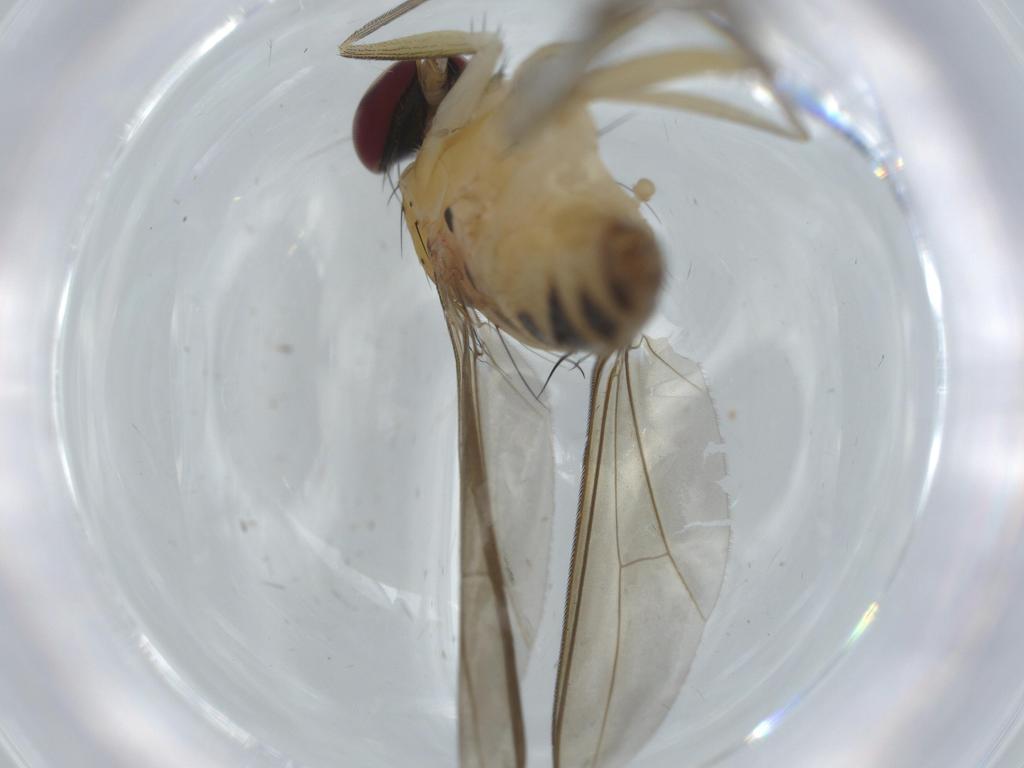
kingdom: Animalia
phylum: Arthropoda
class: Insecta
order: Diptera
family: Dolichopodidae
